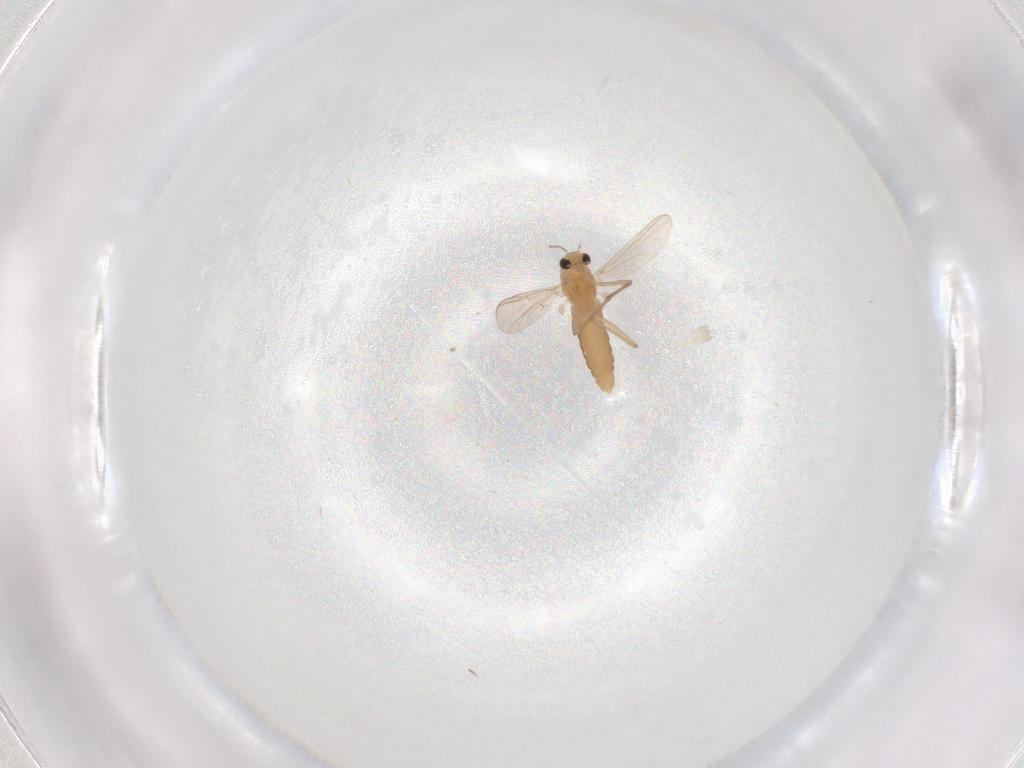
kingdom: Animalia
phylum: Arthropoda
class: Insecta
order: Diptera
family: Chironomidae
